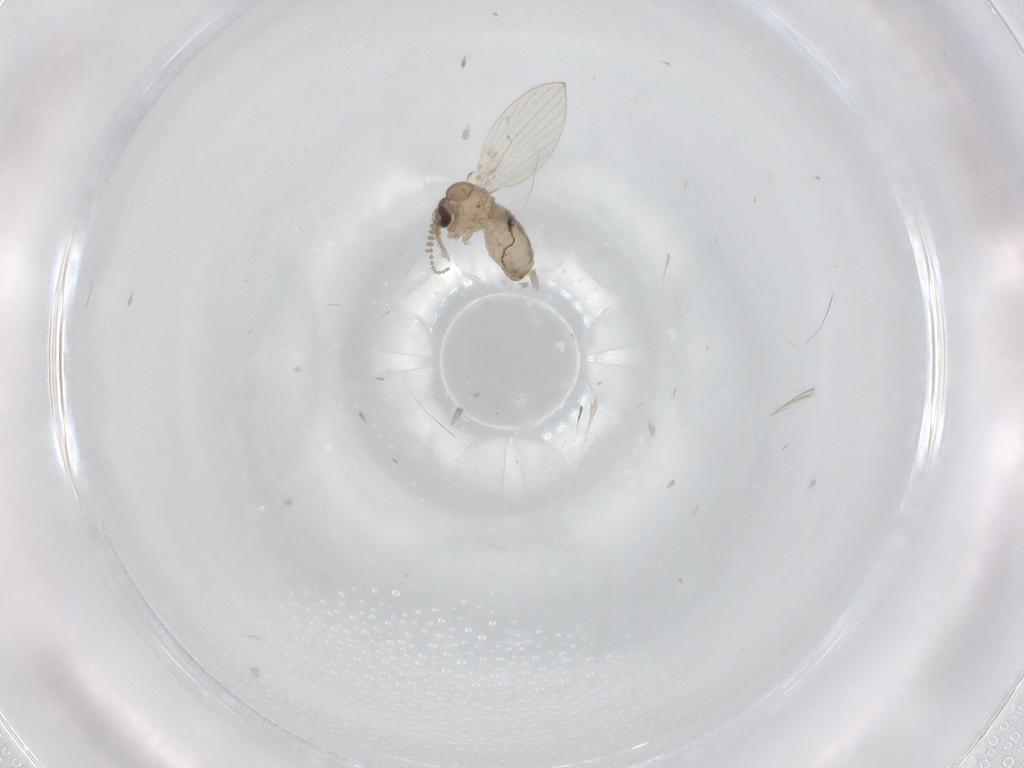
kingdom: Animalia
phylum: Arthropoda
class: Insecta
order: Diptera
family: Psychodidae
